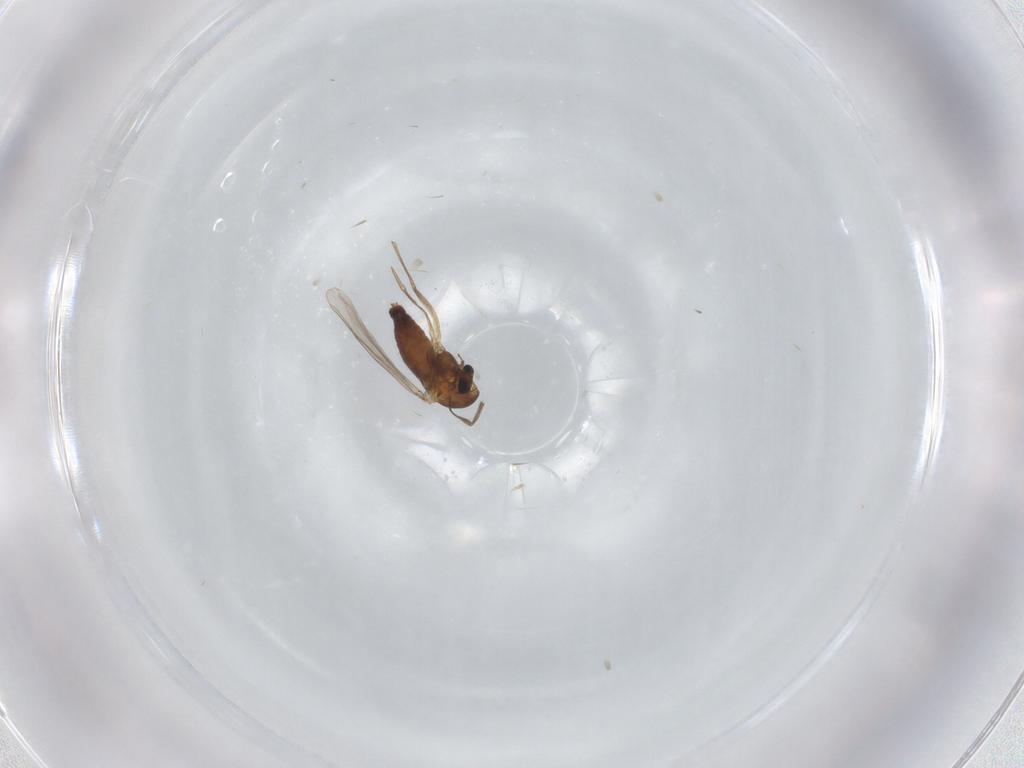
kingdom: Animalia
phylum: Arthropoda
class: Insecta
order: Diptera
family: Chironomidae
